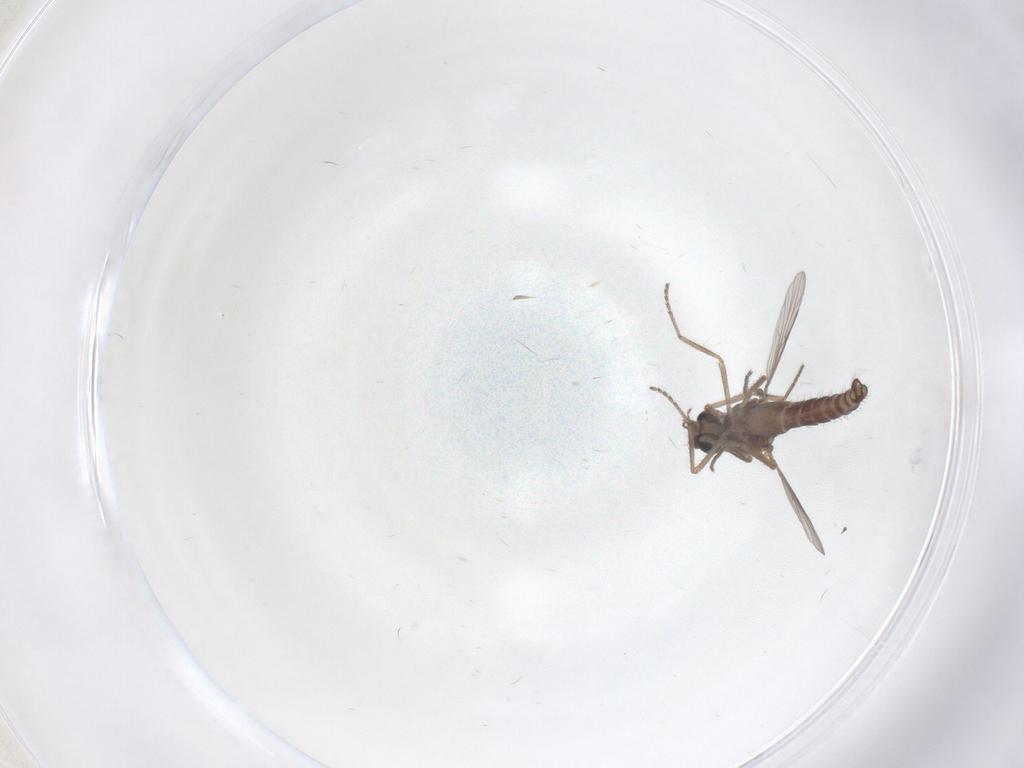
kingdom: Animalia
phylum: Arthropoda
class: Insecta
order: Diptera
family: Ceratopogonidae
